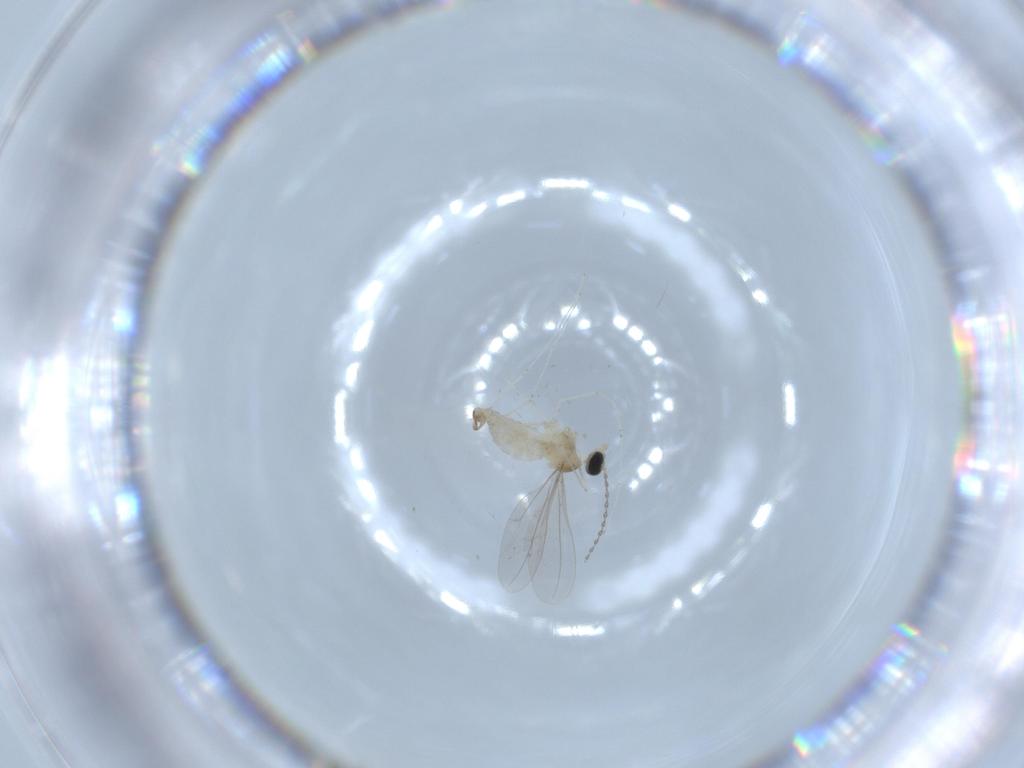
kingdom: Animalia
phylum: Arthropoda
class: Insecta
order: Diptera
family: Cecidomyiidae
